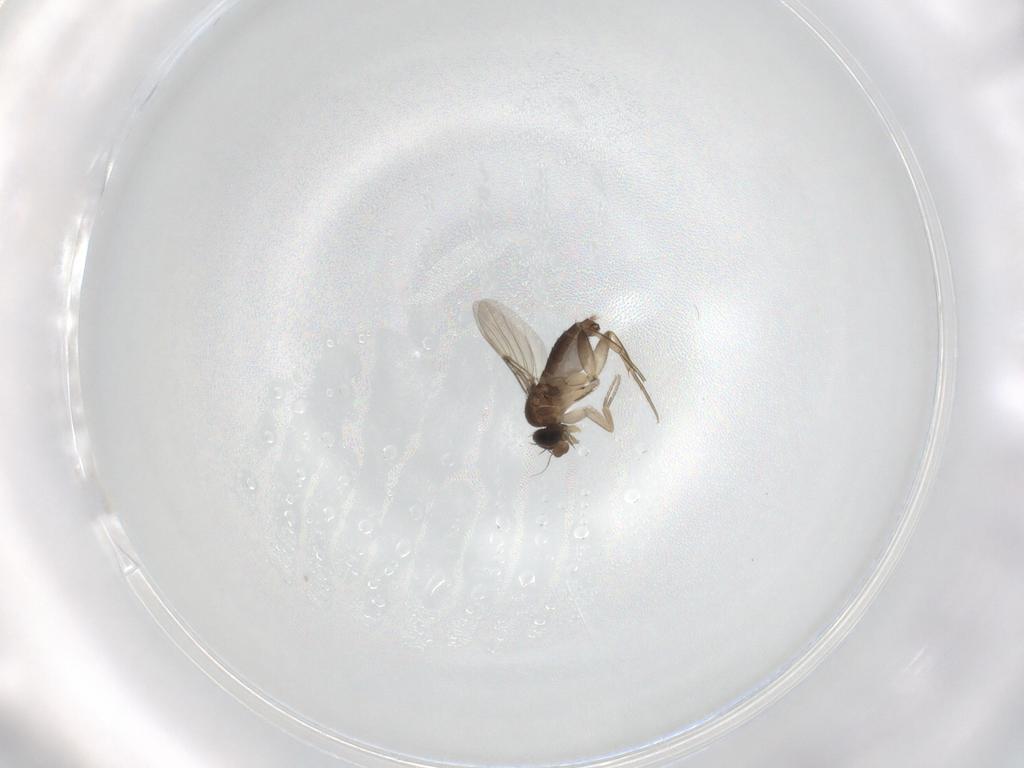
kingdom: Animalia
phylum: Arthropoda
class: Insecta
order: Diptera
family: Phoridae
